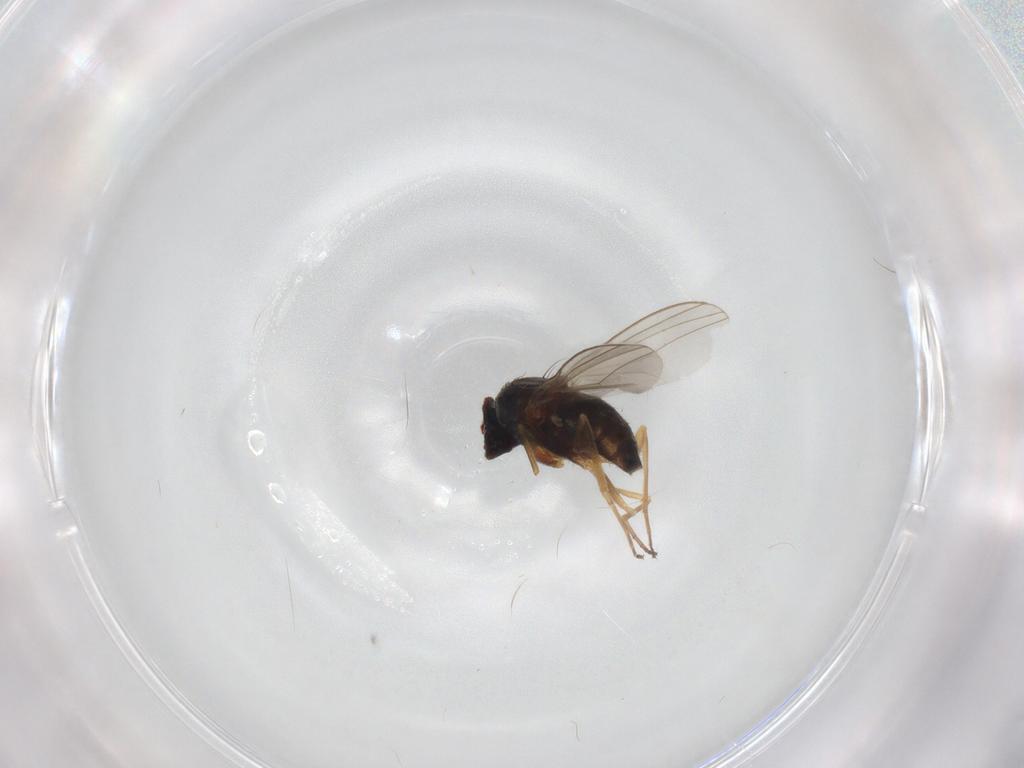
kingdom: Animalia
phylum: Arthropoda
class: Insecta
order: Diptera
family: Dolichopodidae
